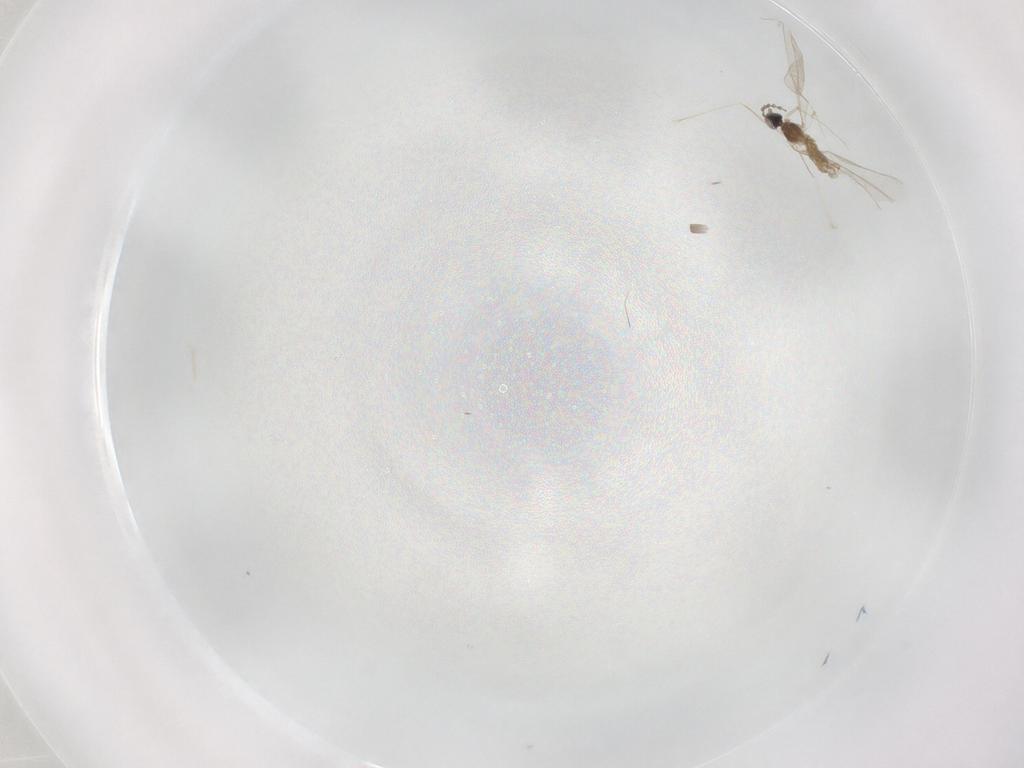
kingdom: Animalia
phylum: Arthropoda
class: Insecta
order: Diptera
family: Cecidomyiidae
